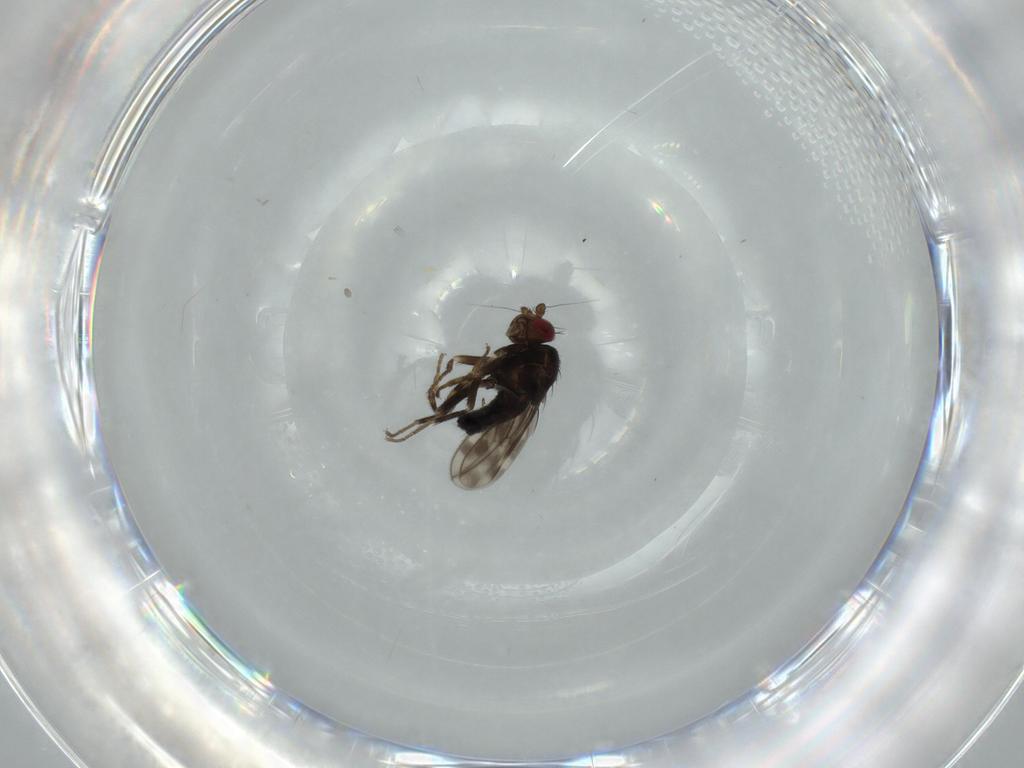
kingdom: Animalia
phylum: Arthropoda
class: Insecta
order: Diptera
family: Sphaeroceridae
